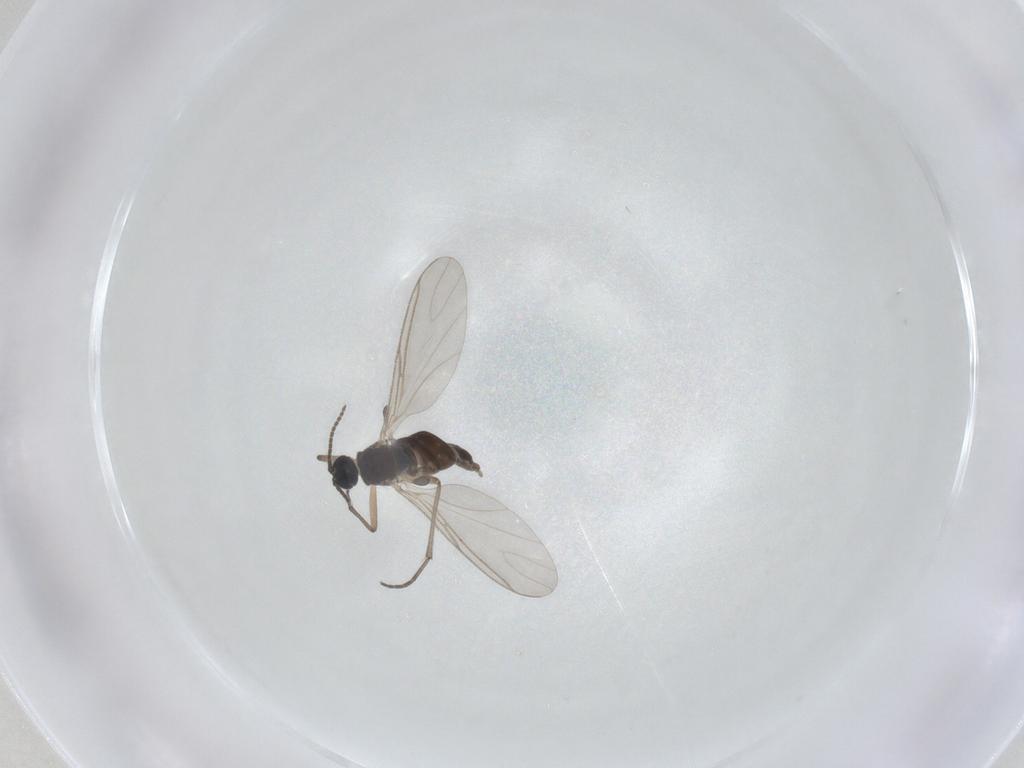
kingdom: Animalia
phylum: Arthropoda
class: Insecta
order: Diptera
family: Sciaridae
